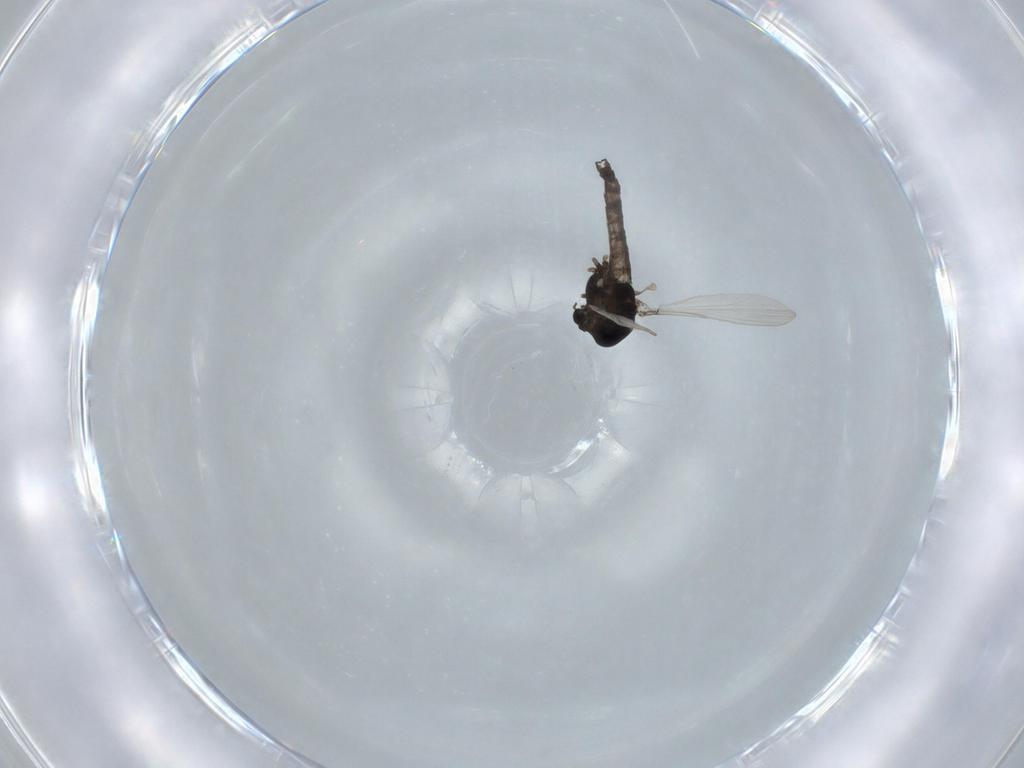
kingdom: Animalia
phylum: Arthropoda
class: Insecta
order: Diptera
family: Chironomidae
